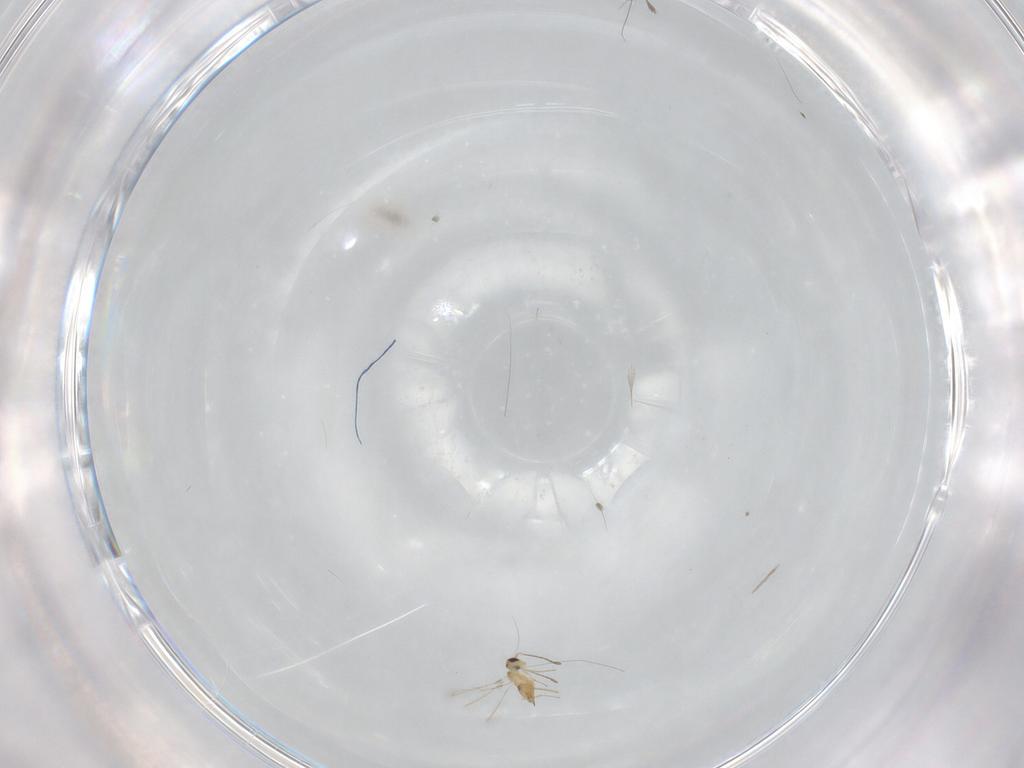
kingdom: Animalia
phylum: Arthropoda
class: Insecta
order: Hymenoptera
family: Mymaridae
